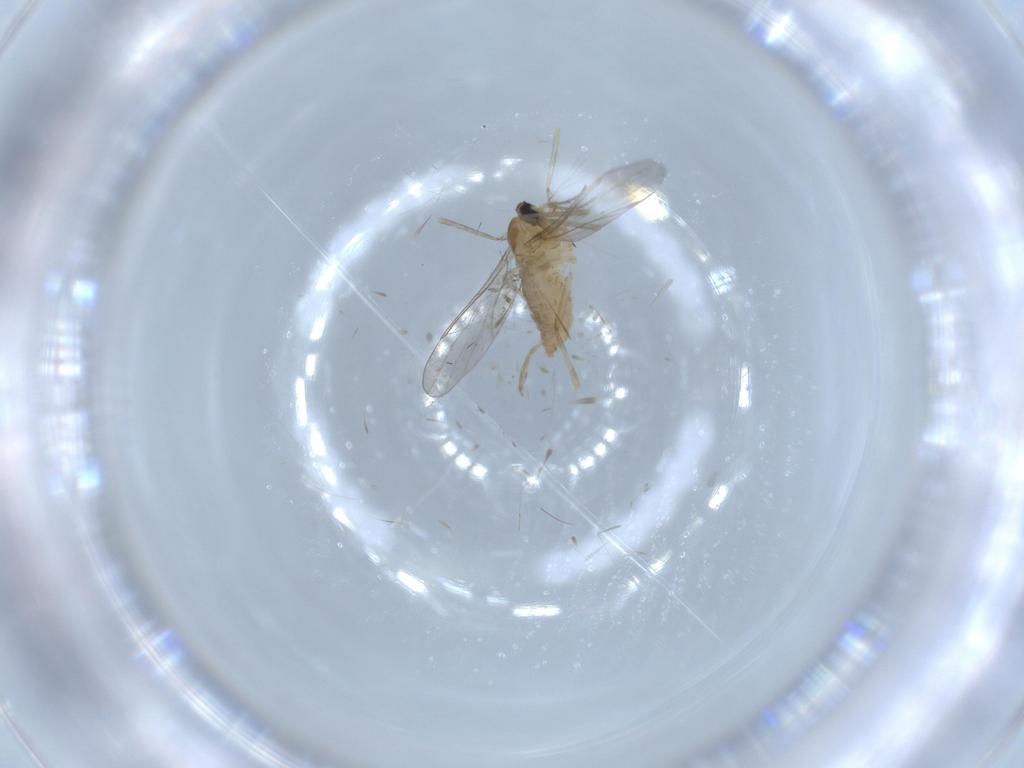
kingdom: Animalia
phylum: Arthropoda
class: Insecta
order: Diptera
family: Cecidomyiidae
